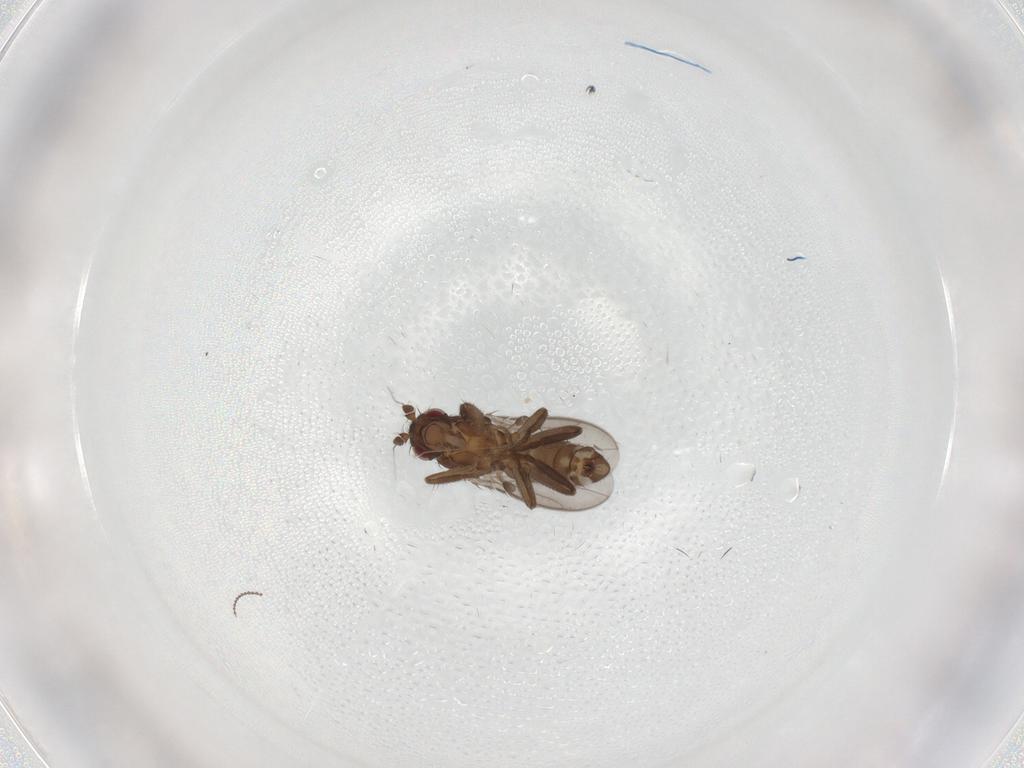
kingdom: Animalia
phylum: Arthropoda
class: Insecta
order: Diptera
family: Sphaeroceridae
